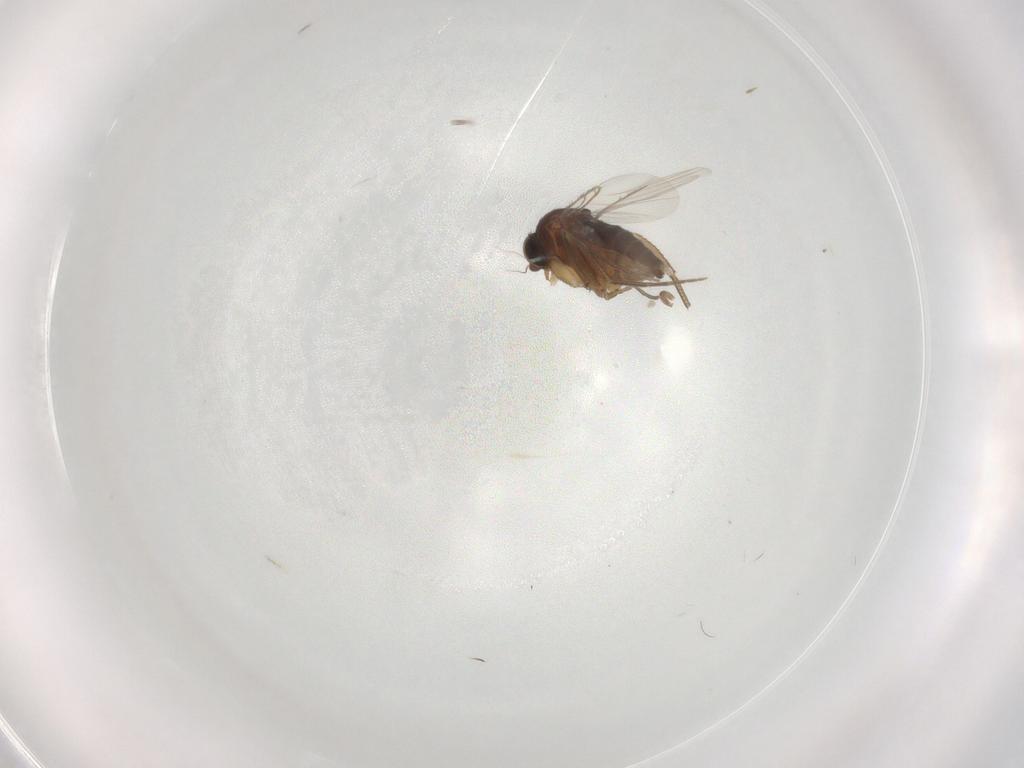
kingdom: Animalia
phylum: Arthropoda
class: Insecta
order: Diptera
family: Phoridae
